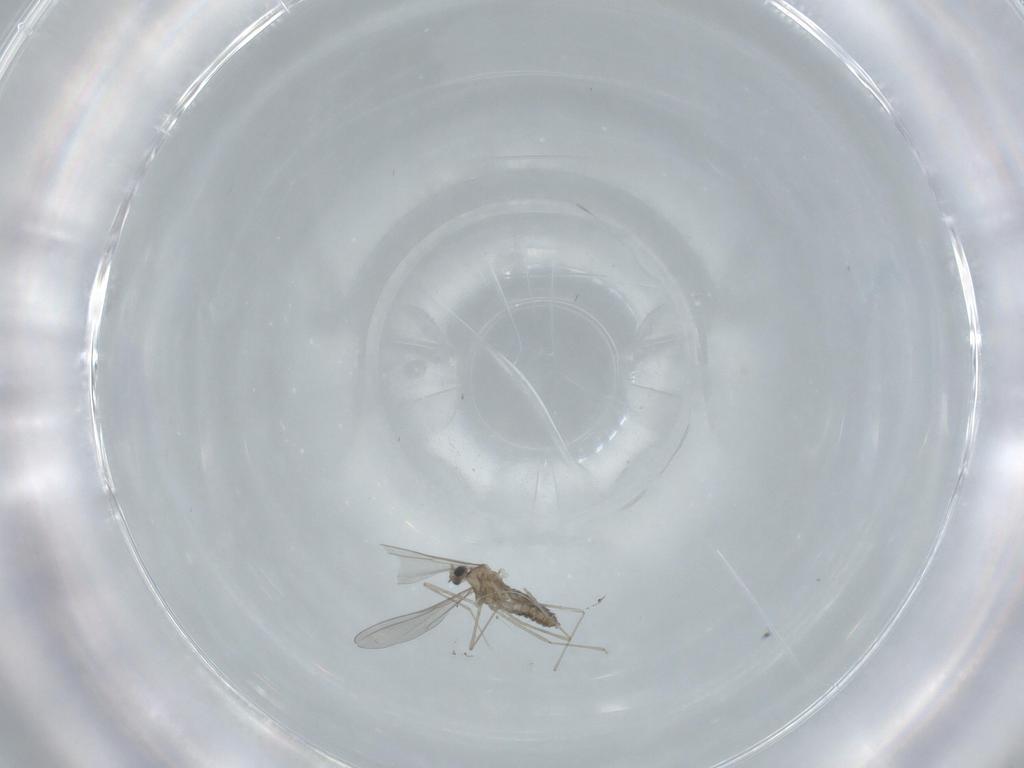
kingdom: Animalia
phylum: Arthropoda
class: Insecta
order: Diptera
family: Cecidomyiidae
